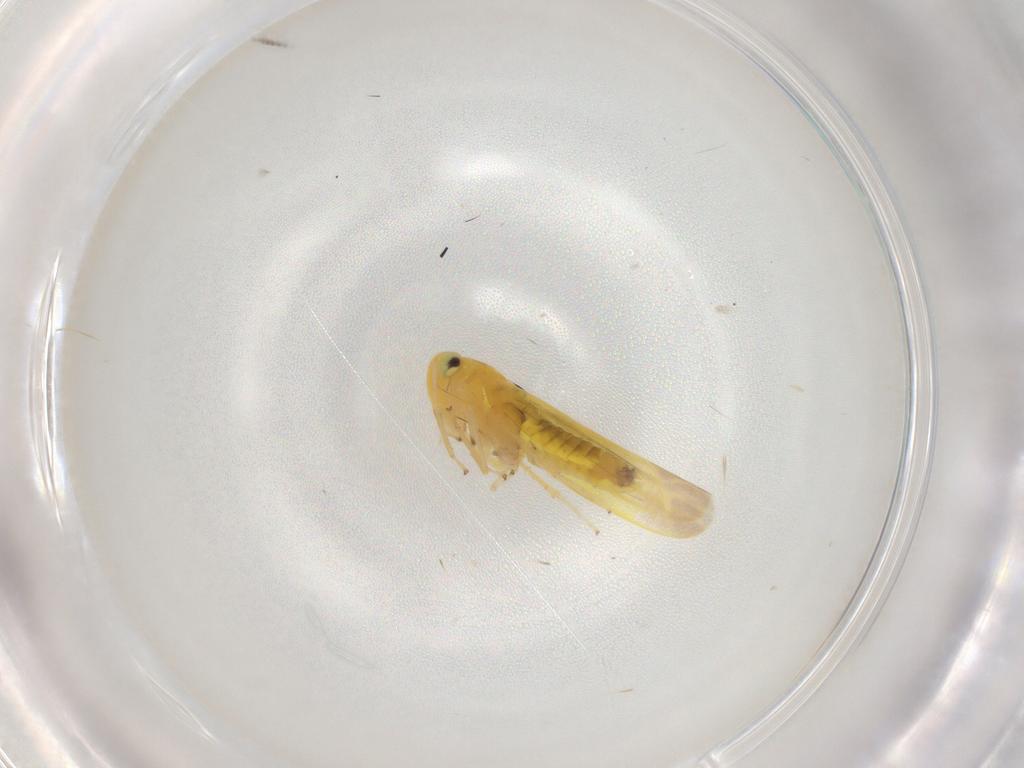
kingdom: Animalia
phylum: Arthropoda
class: Insecta
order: Hemiptera
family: Cicadellidae
